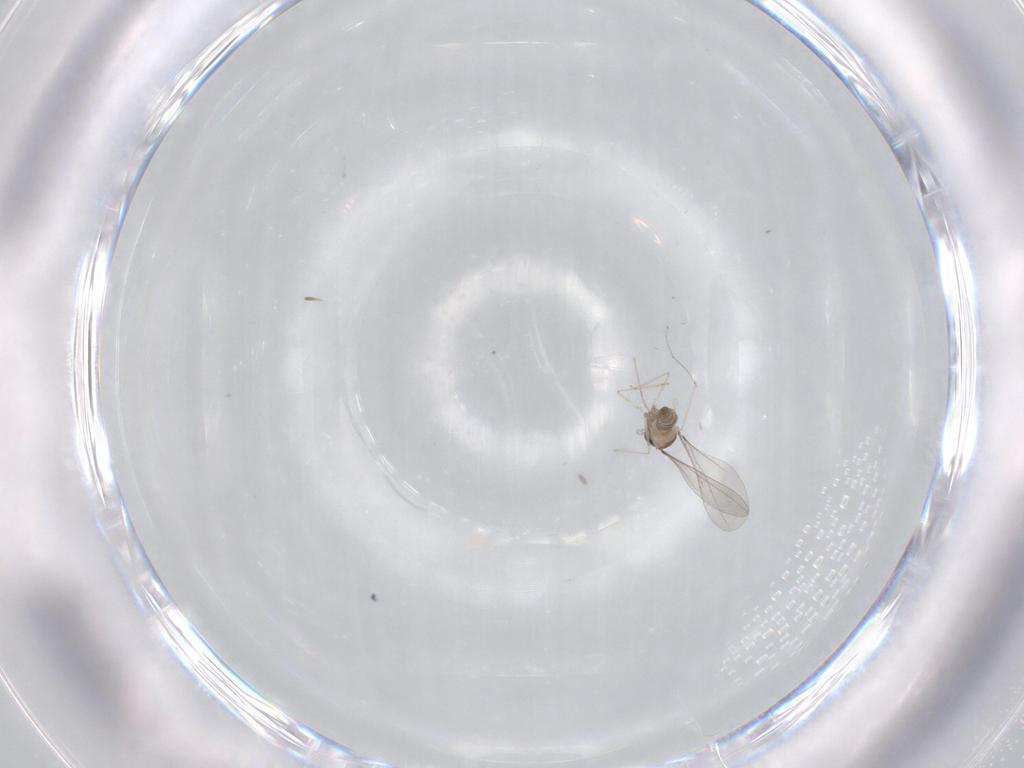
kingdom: Animalia
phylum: Arthropoda
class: Insecta
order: Diptera
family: Cecidomyiidae
